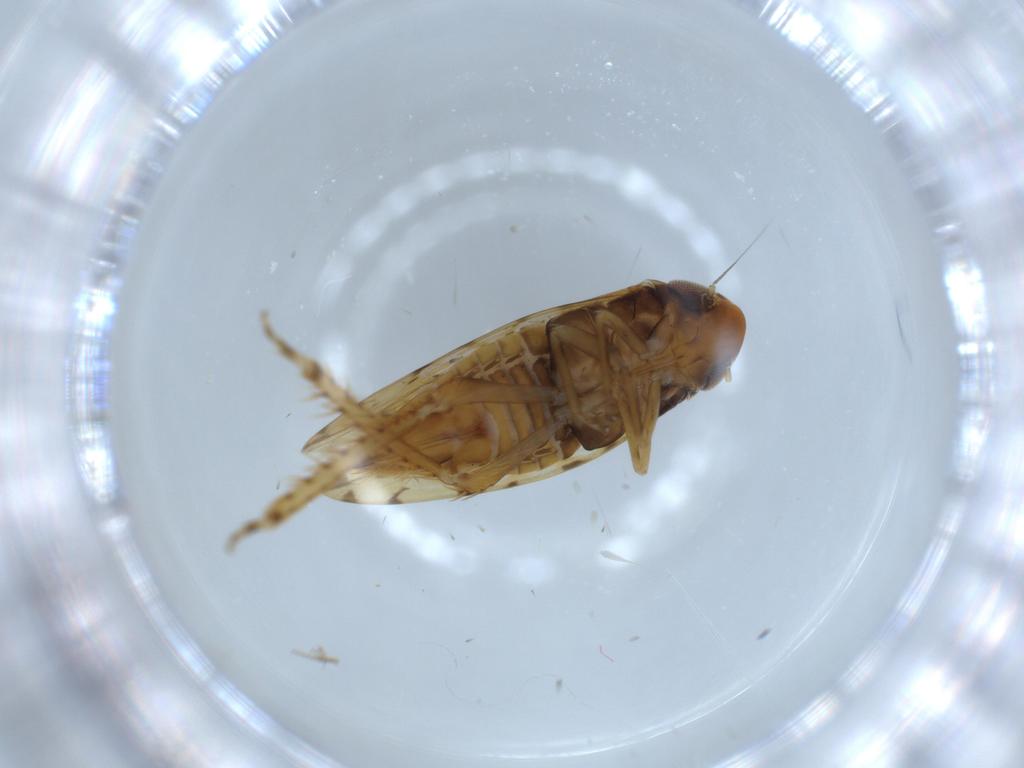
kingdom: Animalia
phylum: Arthropoda
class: Insecta
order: Hemiptera
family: Cicadellidae
